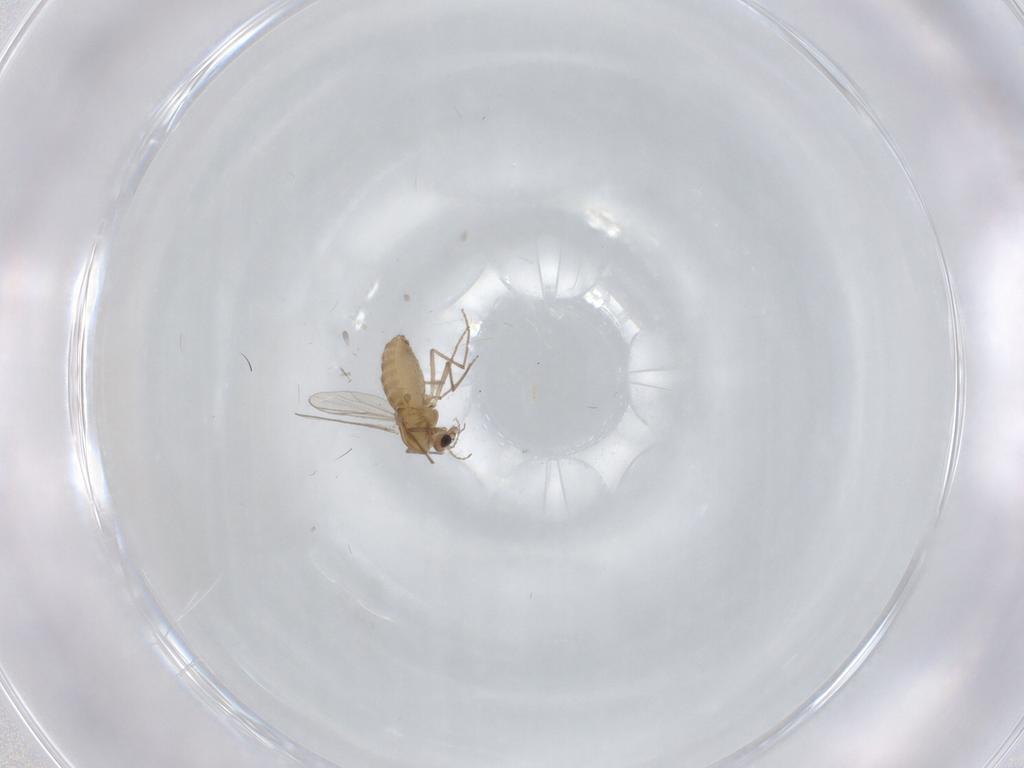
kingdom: Animalia
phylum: Arthropoda
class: Insecta
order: Diptera
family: Chironomidae
